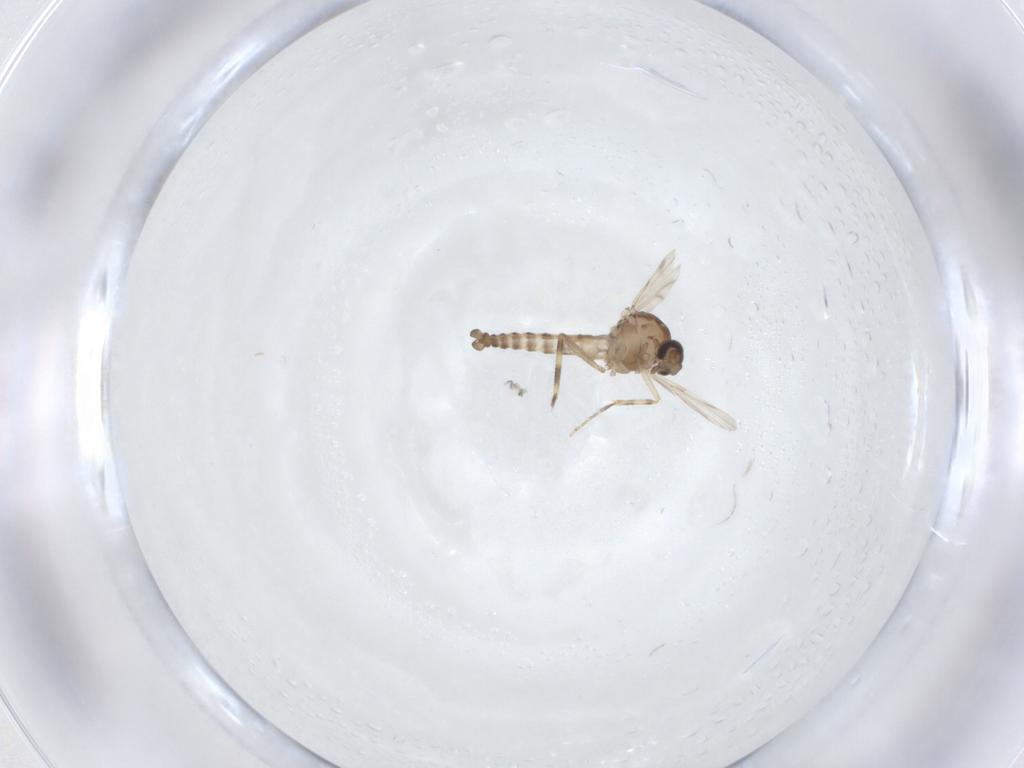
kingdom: Animalia
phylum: Arthropoda
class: Insecta
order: Diptera
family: Ceratopogonidae
